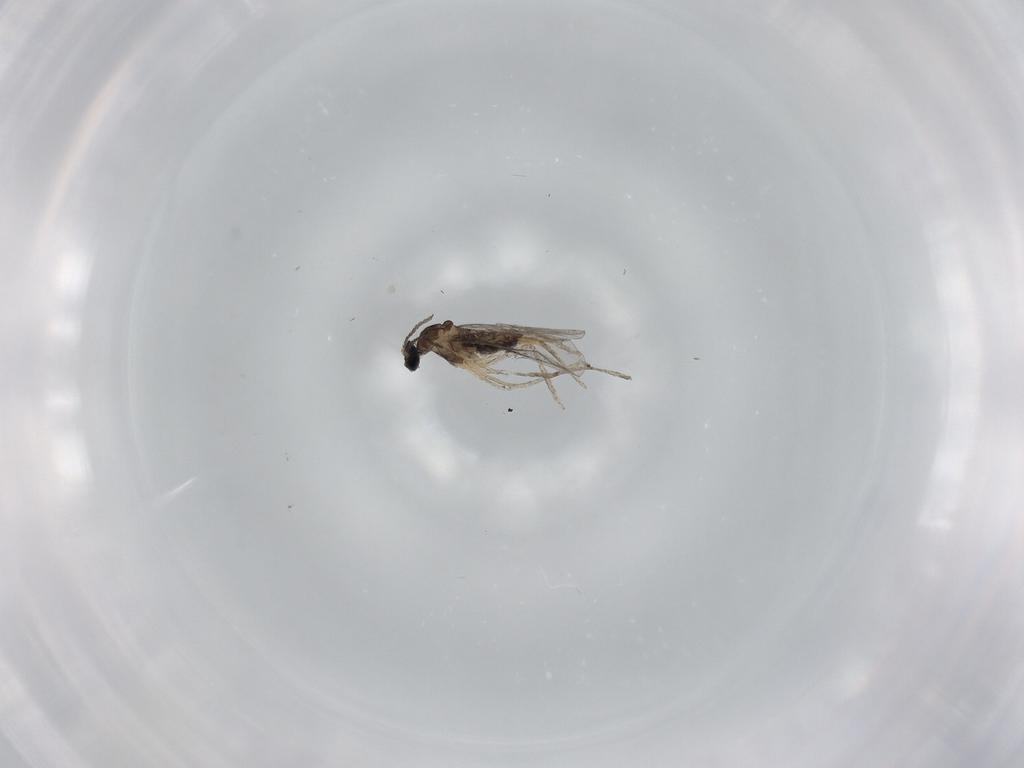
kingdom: Animalia
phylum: Arthropoda
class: Insecta
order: Diptera
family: Cecidomyiidae
